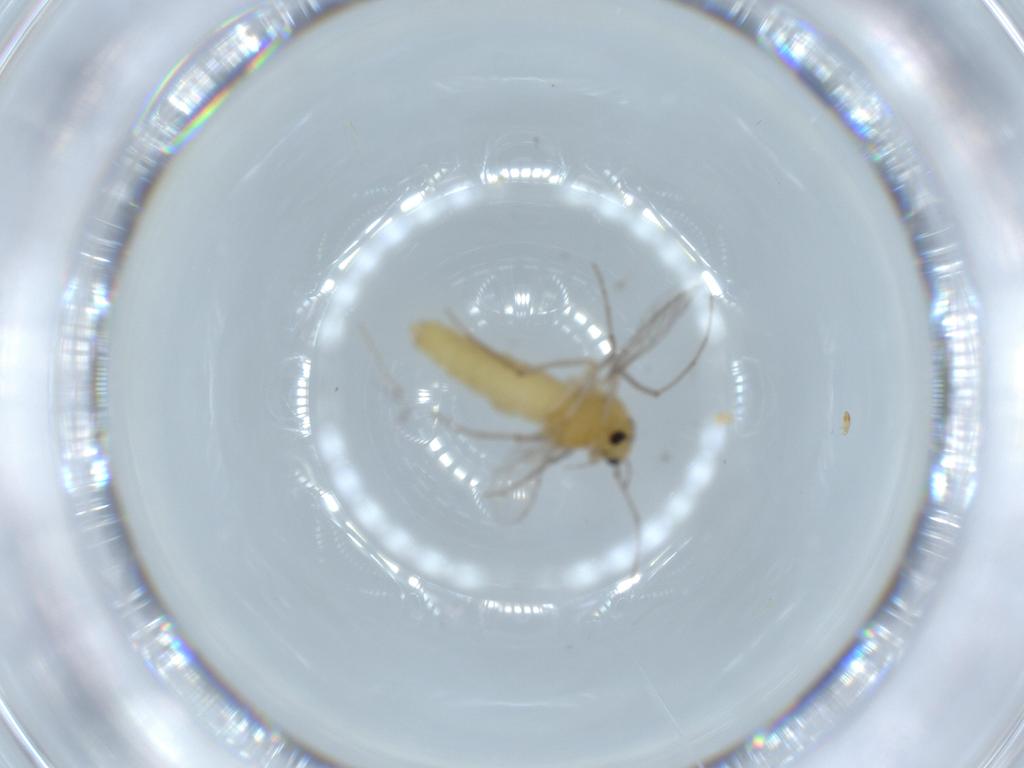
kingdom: Animalia
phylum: Arthropoda
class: Insecta
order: Diptera
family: Chironomidae
